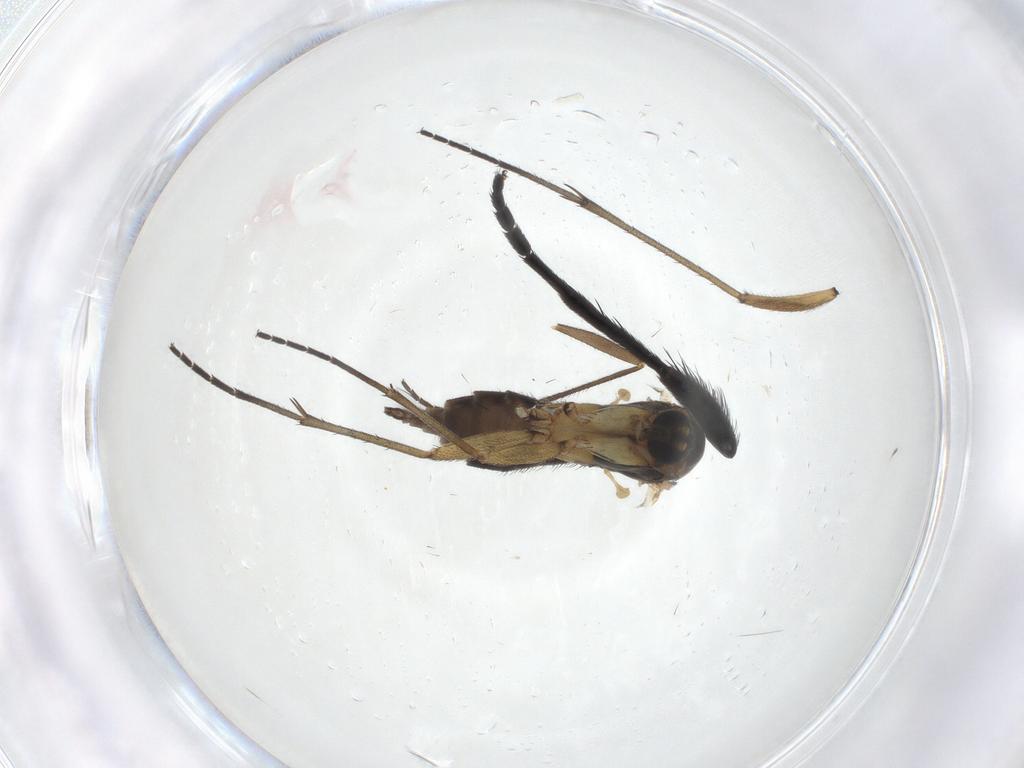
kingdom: Animalia
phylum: Arthropoda
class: Insecta
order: Diptera
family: Sciaridae
